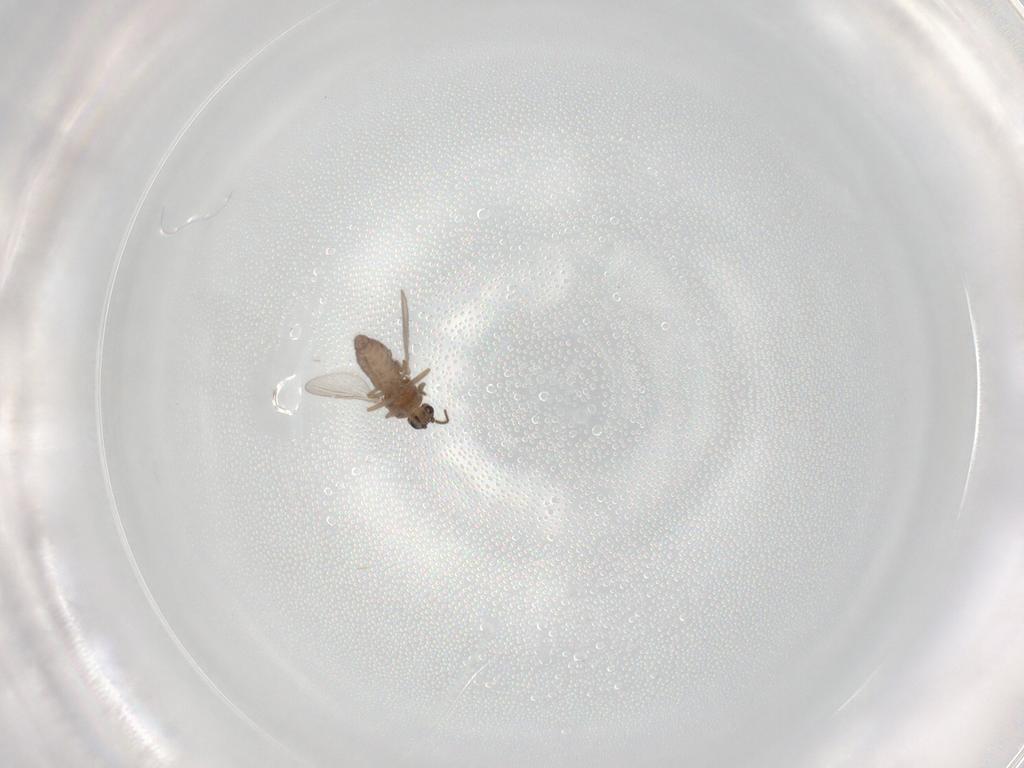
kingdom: Animalia
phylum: Arthropoda
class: Insecta
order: Diptera
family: Ceratopogonidae
